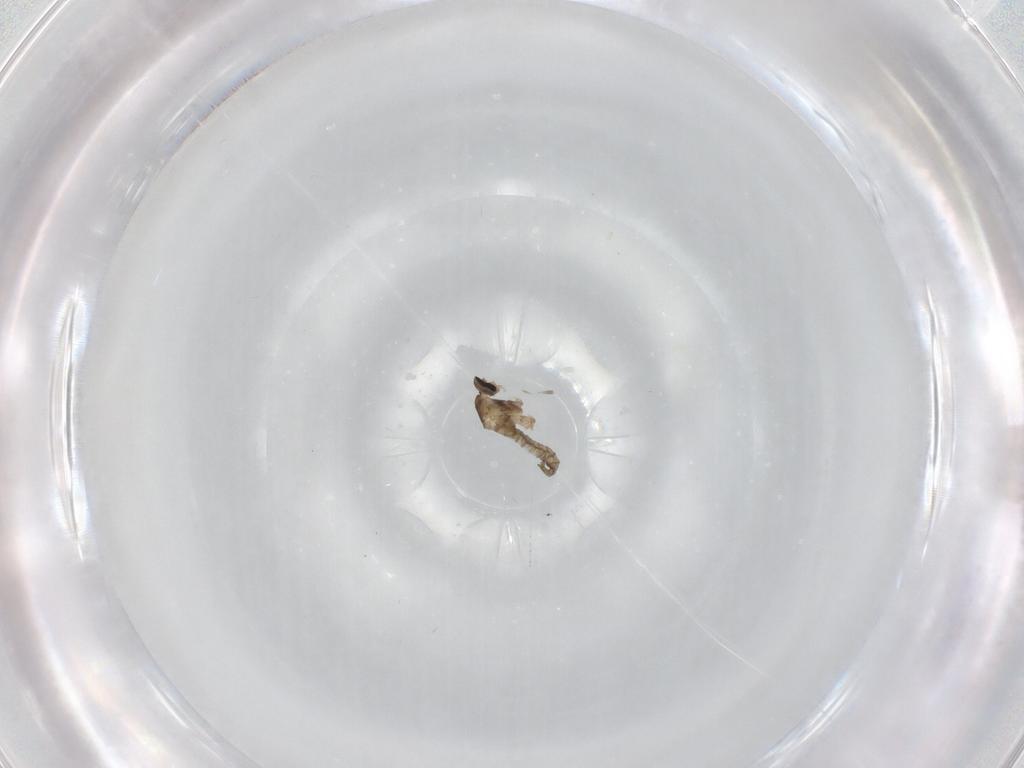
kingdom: Animalia
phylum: Arthropoda
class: Insecta
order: Diptera
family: Cecidomyiidae
